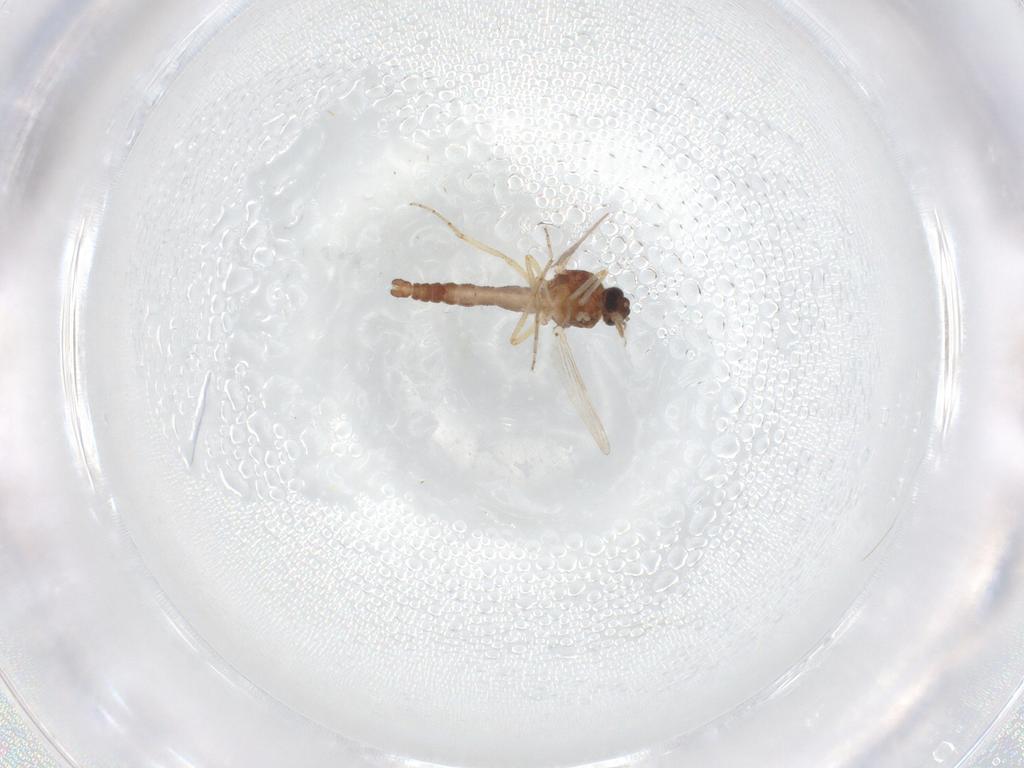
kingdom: Animalia
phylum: Arthropoda
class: Insecta
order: Diptera
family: Ceratopogonidae
